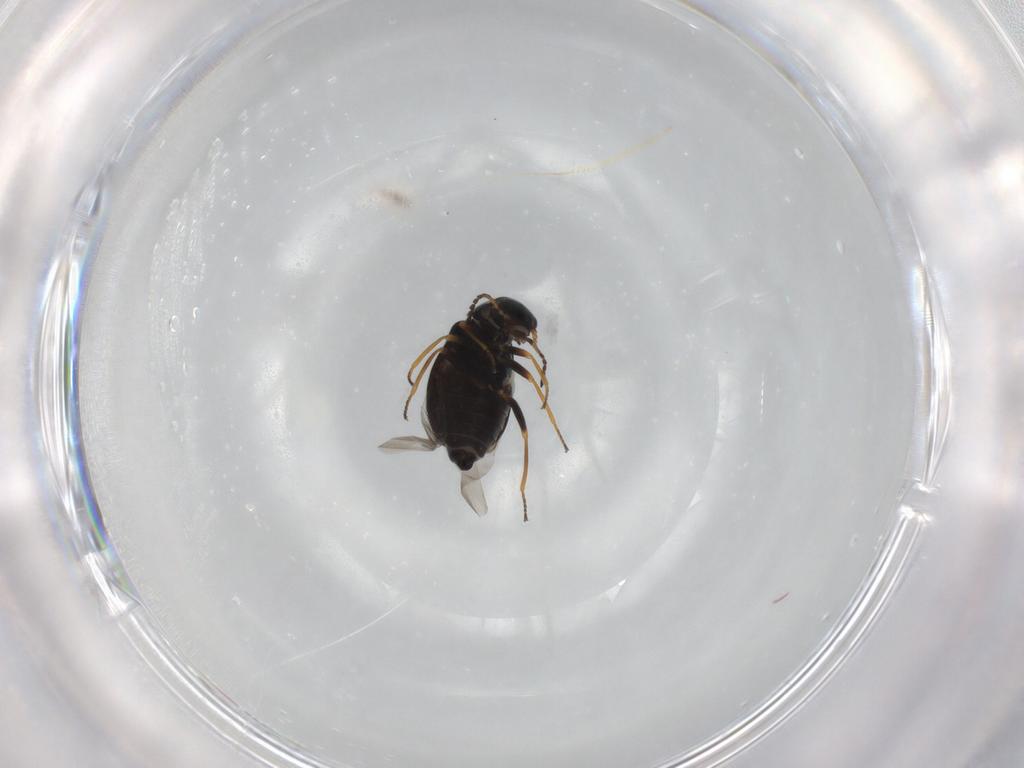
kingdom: Animalia
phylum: Arthropoda
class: Insecta
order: Coleoptera
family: Melyridae
